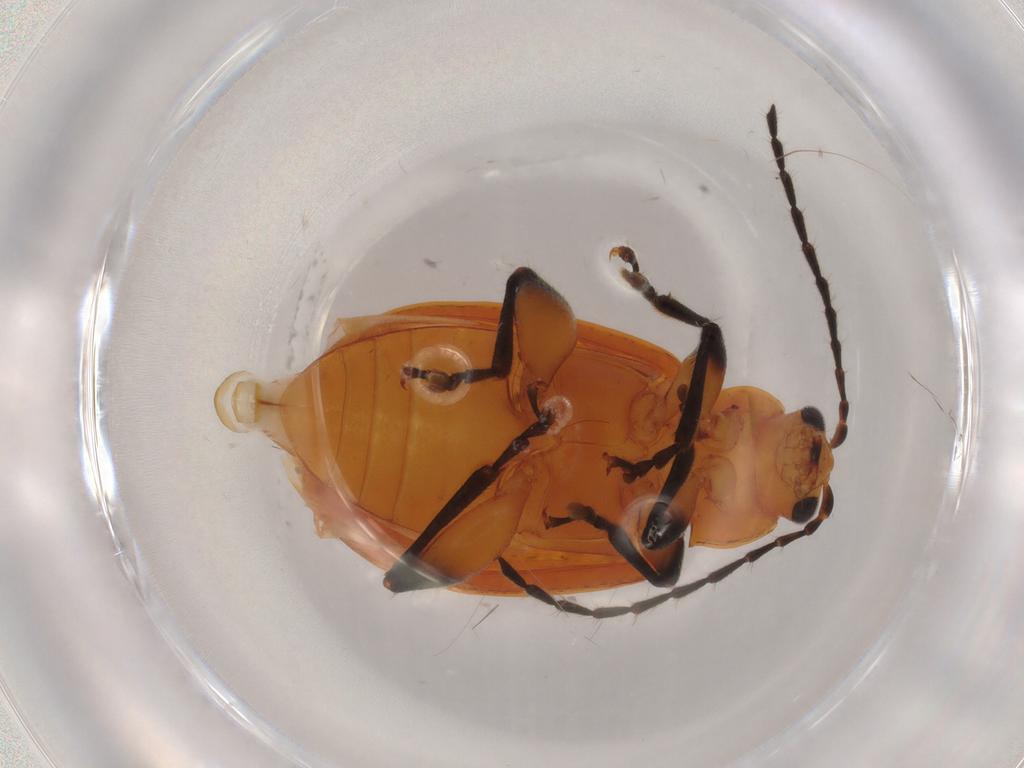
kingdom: Animalia
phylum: Arthropoda
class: Insecta
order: Coleoptera
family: Chrysomelidae
